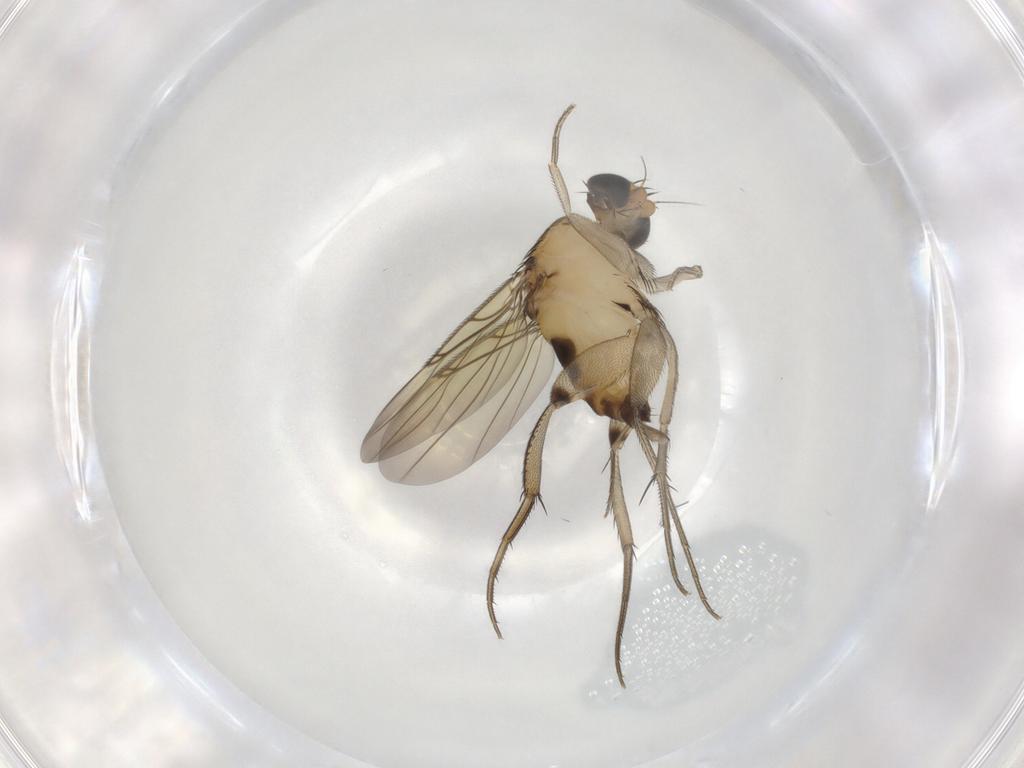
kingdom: Animalia
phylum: Arthropoda
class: Insecta
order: Diptera
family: Phoridae
